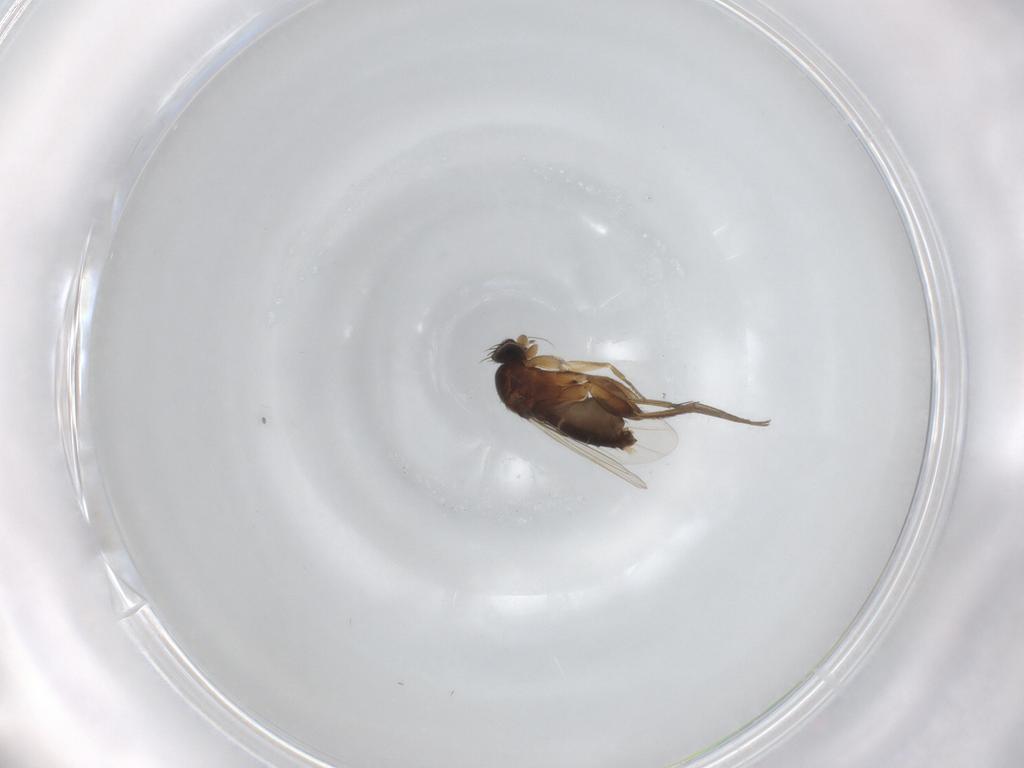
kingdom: Animalia
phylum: Arthropoda
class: Insecta
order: Diptera
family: Phoridae
